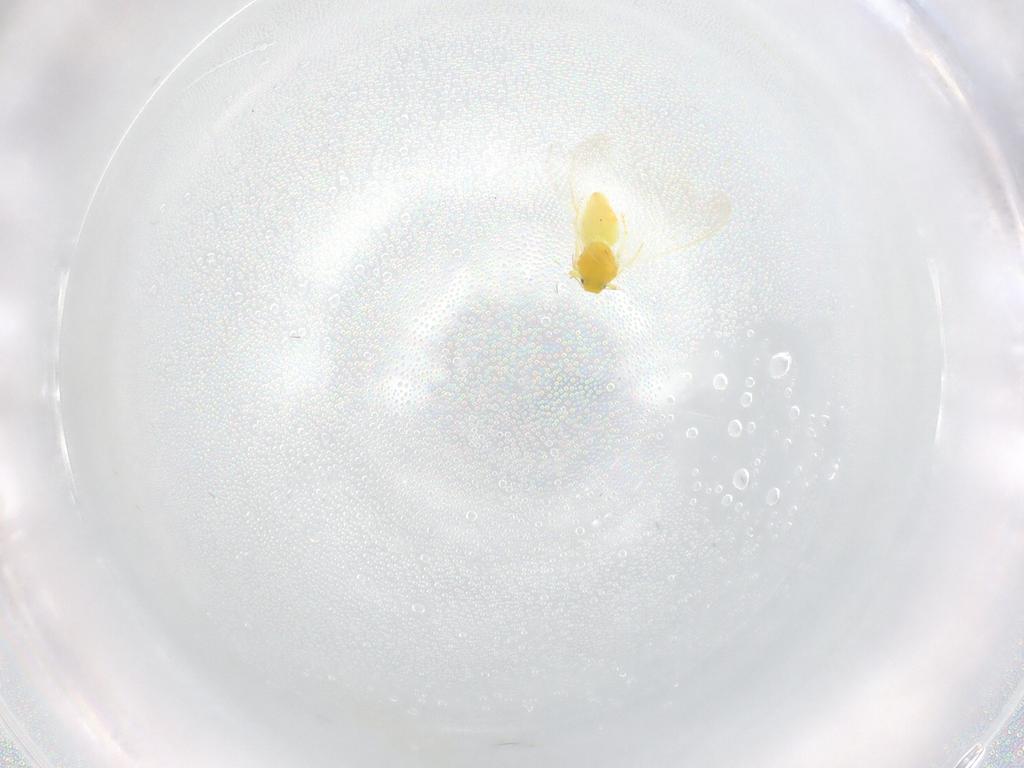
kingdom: Animalia
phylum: Arthropoda
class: Insecta
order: Hemiptera
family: Aleyrodidae
